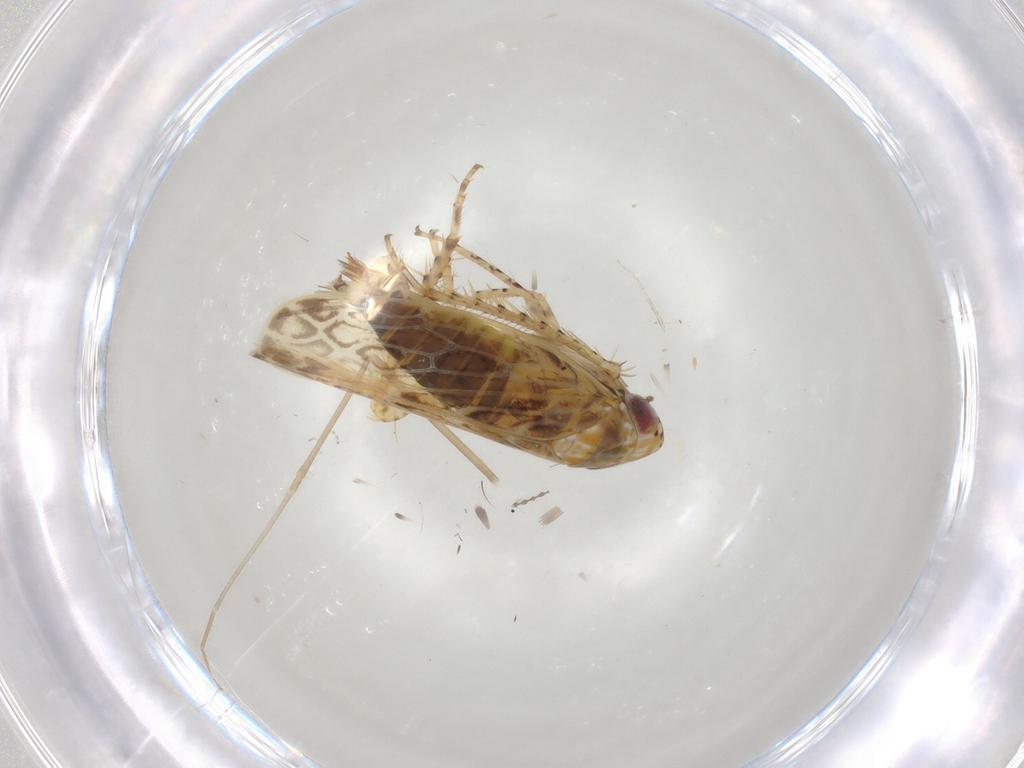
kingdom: Animalia
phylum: Arthropoda
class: Insecta
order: Hemiptera
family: Cicadellidae
